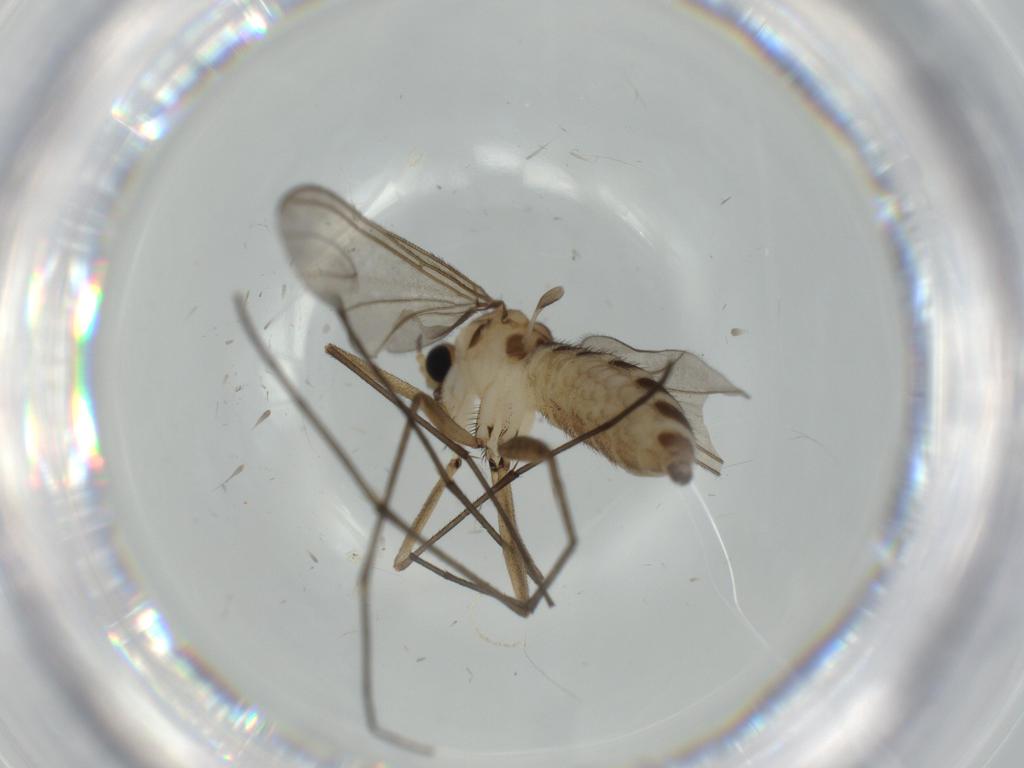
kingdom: Animalia
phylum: Arthropoda
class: Insecta
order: Diptera
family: Sciaridae
